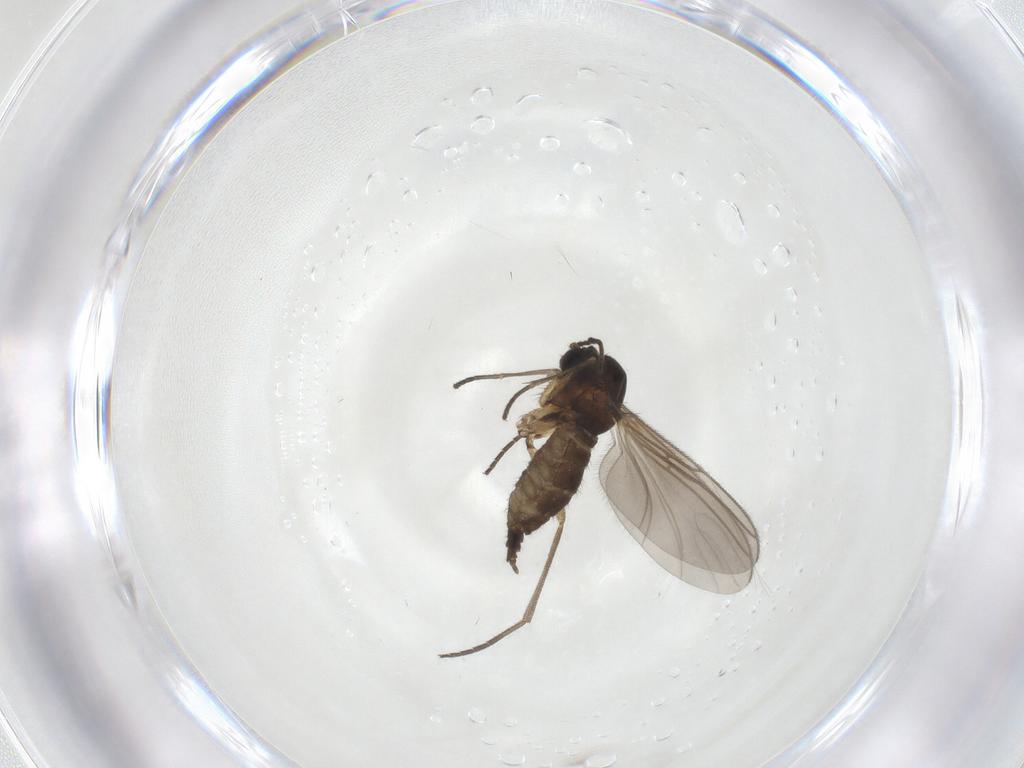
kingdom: Animalia
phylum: Arthropoda
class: Insecta
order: Diptera
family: Sciaridae
